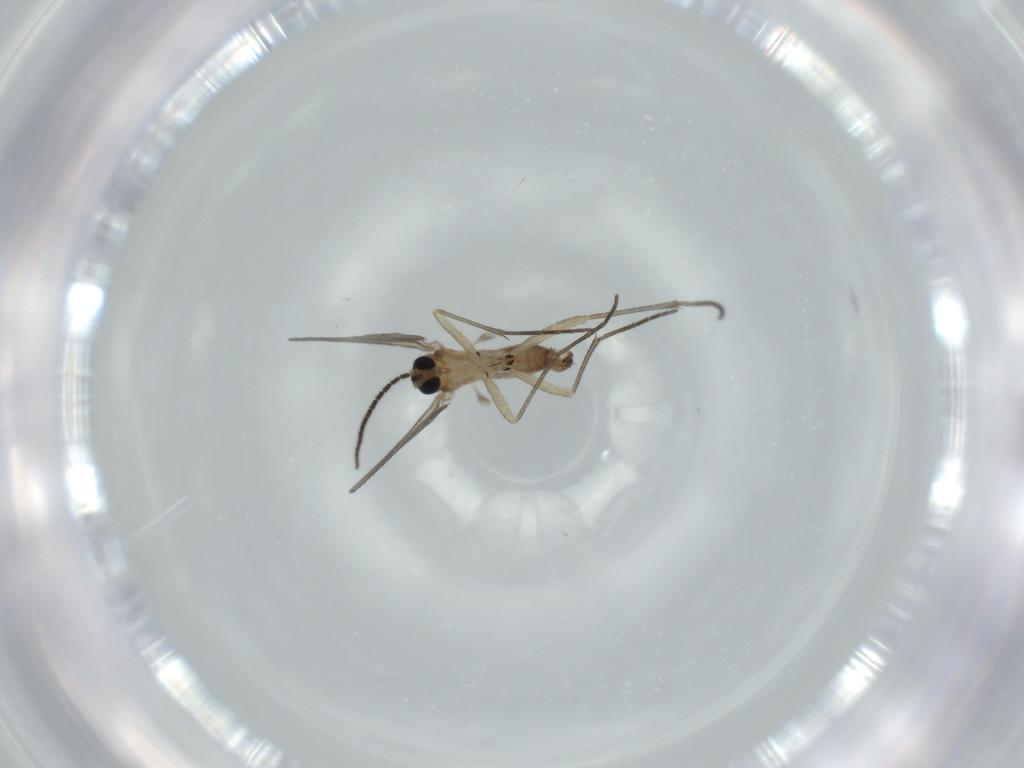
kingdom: Animalia
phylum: Arthropoda
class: Insecta
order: Diptera
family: Sciaridae
